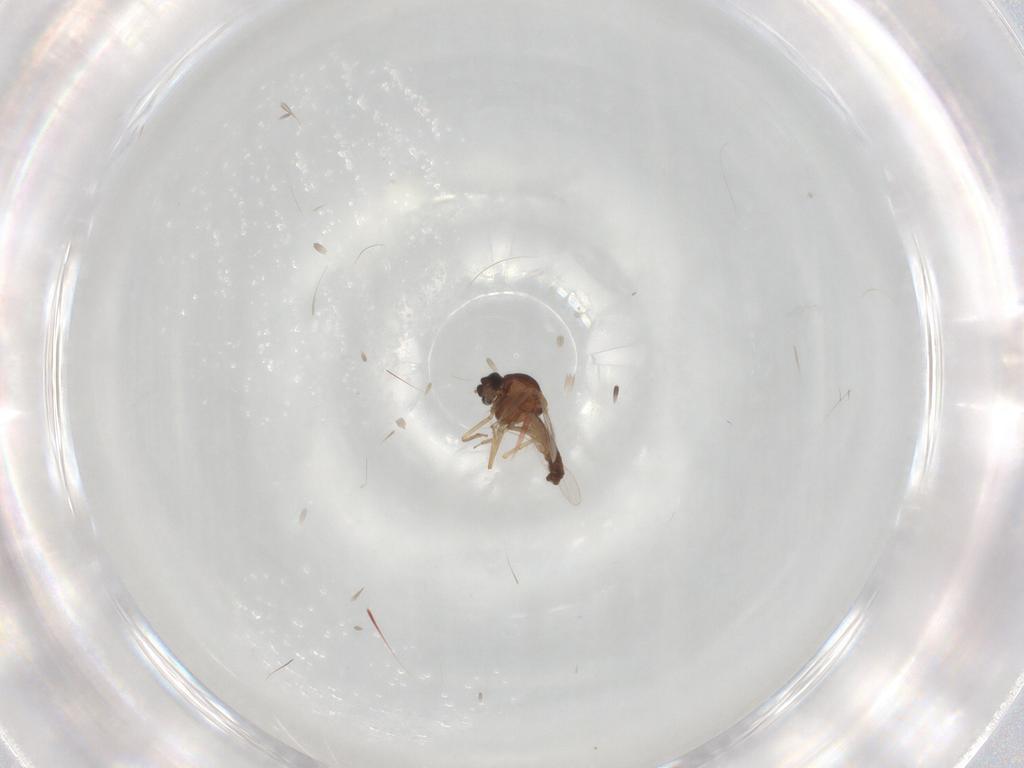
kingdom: Animalia
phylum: Arthropoda
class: Insecta
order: Diptera
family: Ceratopogonidae
